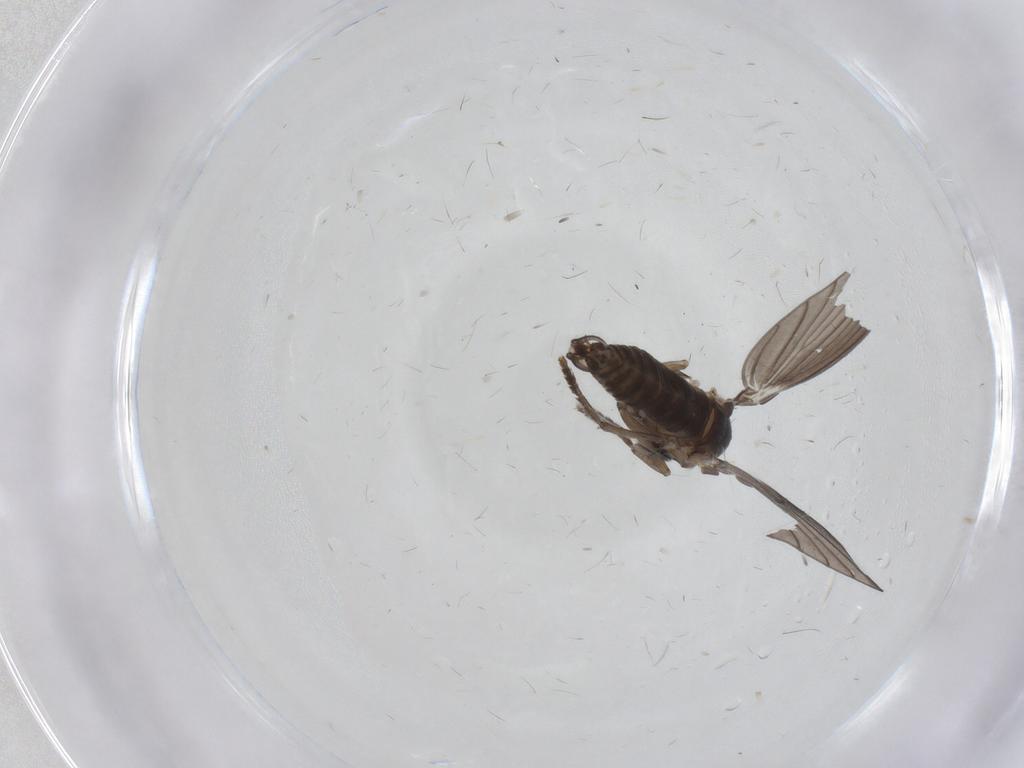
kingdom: Animalia
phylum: Arthropoda
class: Insecta
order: Diptera
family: Psychodidae
